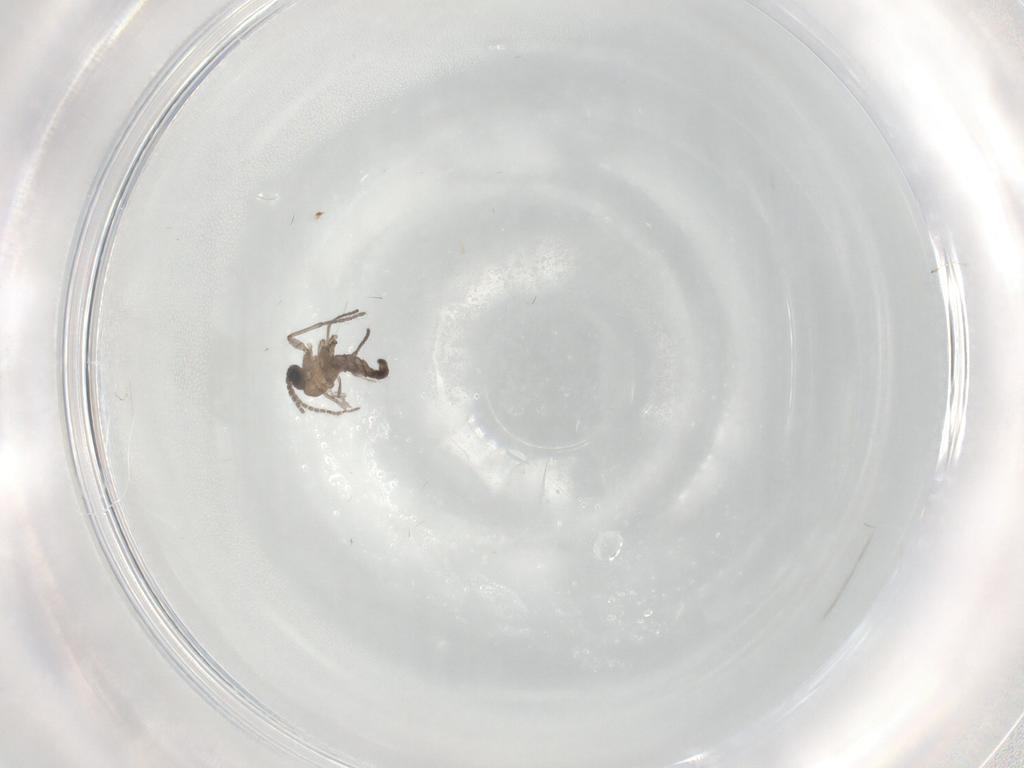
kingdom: Animalia
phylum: Arthropoda
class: Insecta
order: Diptera
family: Sciaridae
